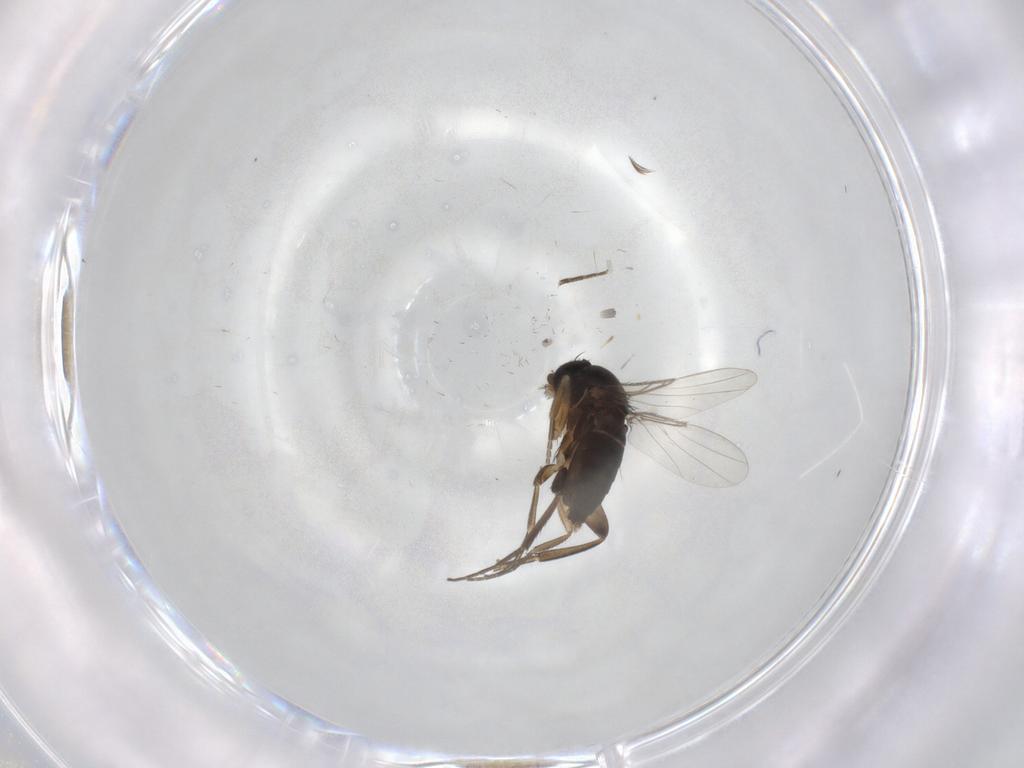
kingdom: Animalia
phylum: Arthropoda
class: Insecta
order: Diptera
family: Phoridae
